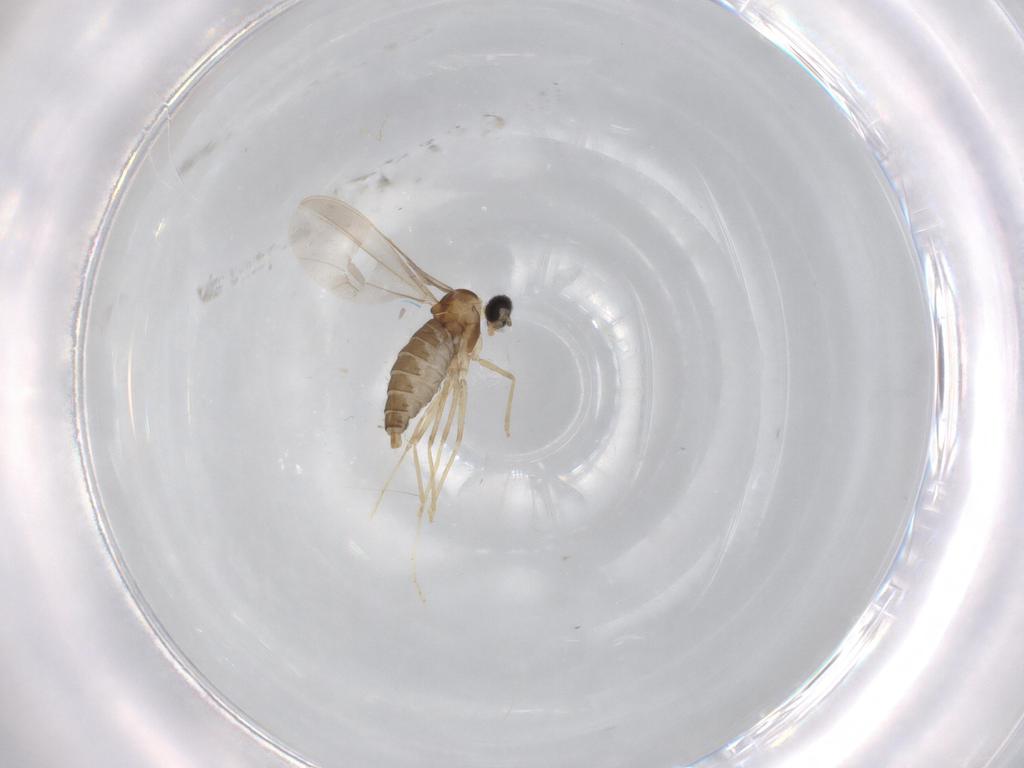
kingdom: Animalia
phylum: Arthropoda
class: Insecta
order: Diptera
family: Cecidomyiidae
